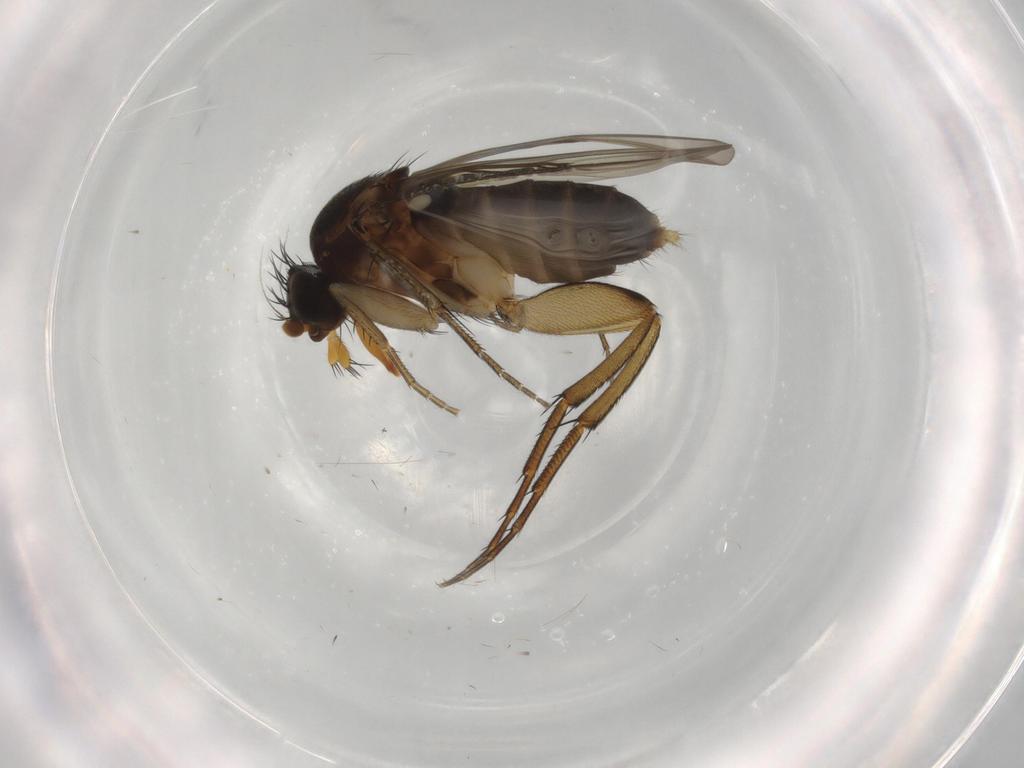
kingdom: Animalia
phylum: Arthropoda
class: Insecta
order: Diptera
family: Phoridae
